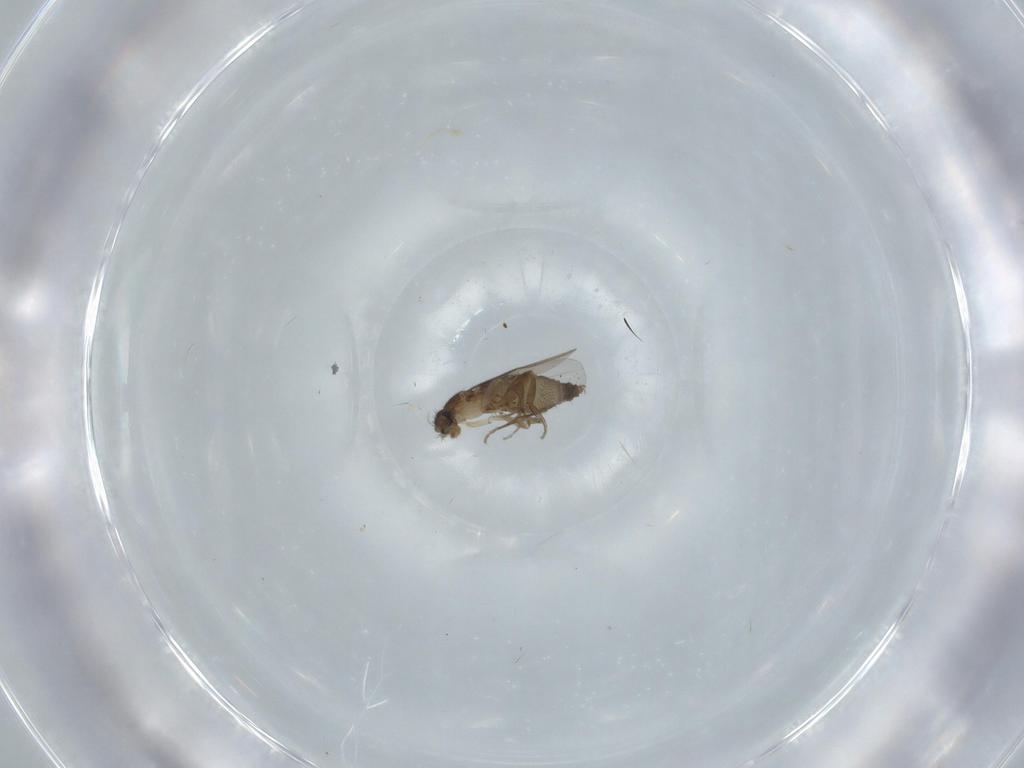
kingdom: Animalia
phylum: Arthropoda
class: Insecta
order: Diptera
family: Phoridae
